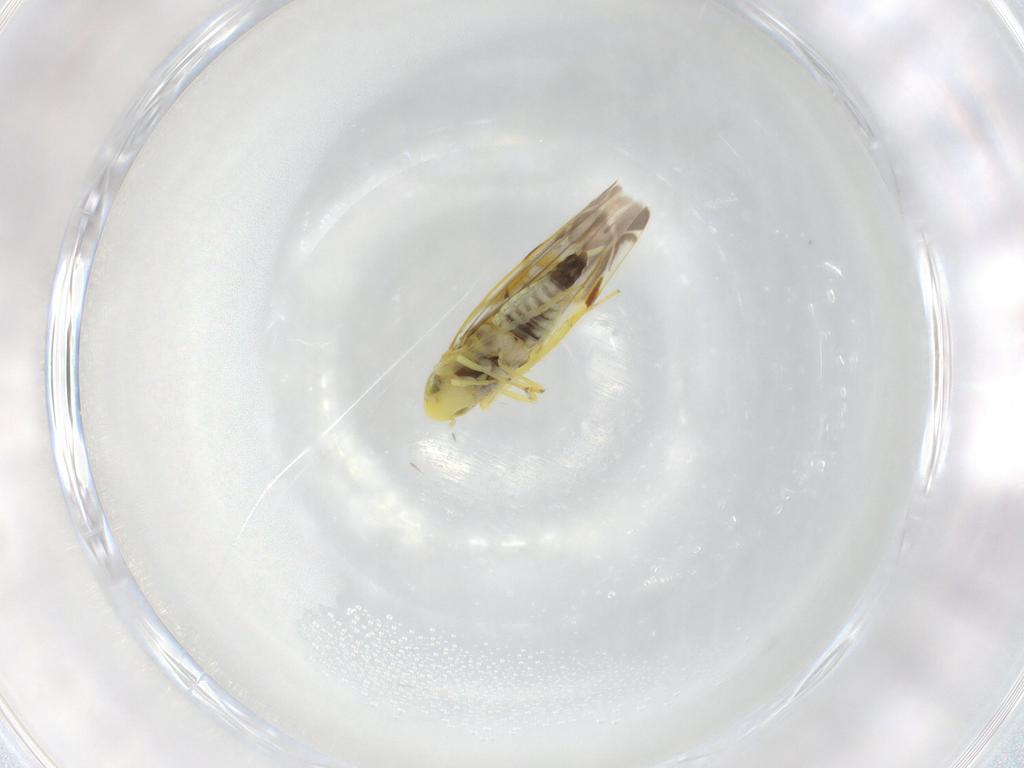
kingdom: Animalia
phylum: Arthropoda
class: Insecta
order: Hemiptera
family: Cicadellidae
